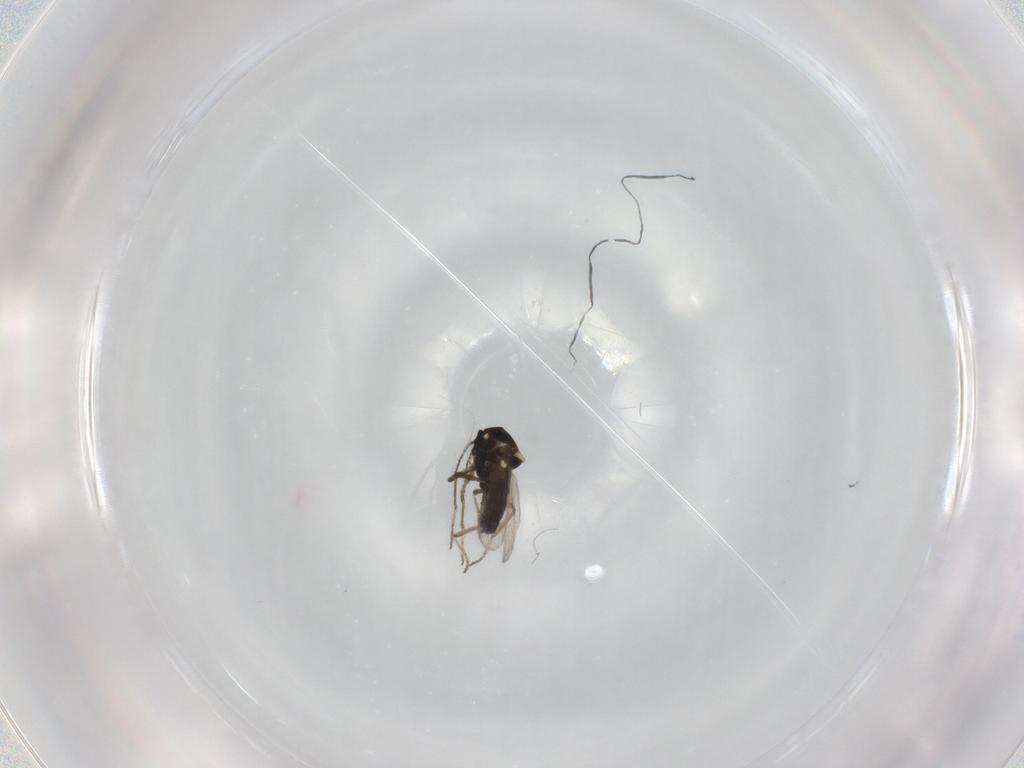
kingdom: Animalia
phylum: Arthropoda
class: Insecta
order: Diptera
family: Ceratopogonidae
